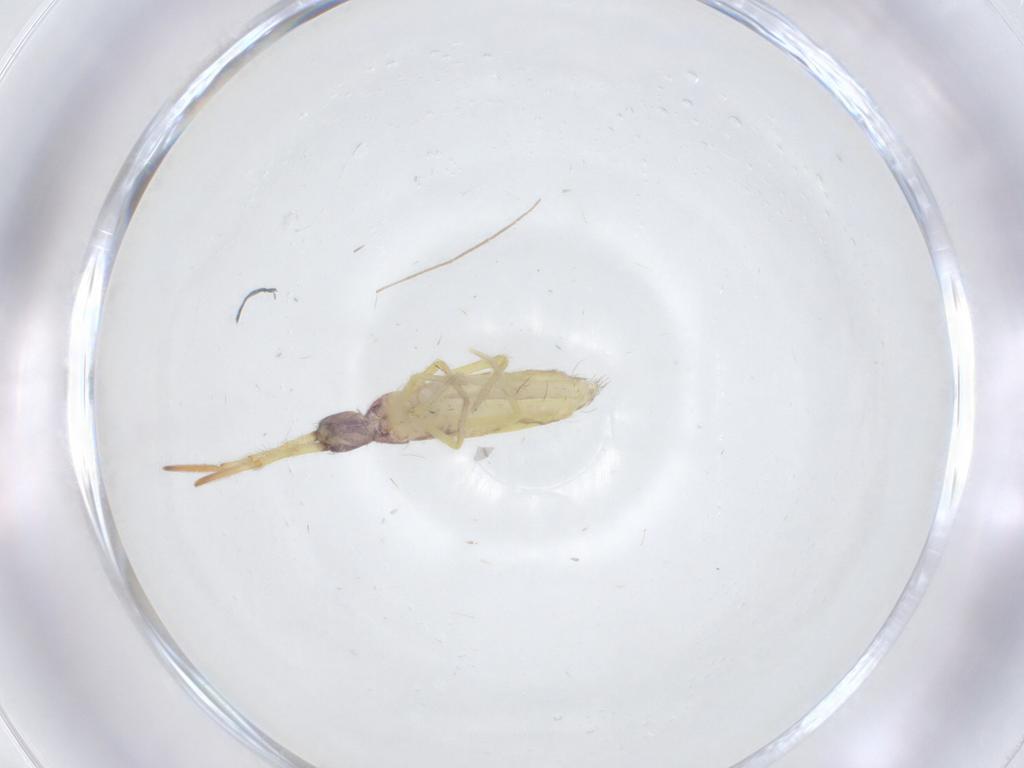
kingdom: Animalia
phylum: Arthropoda
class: Collembola
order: Entomobryomorpha
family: Entomobryidae
